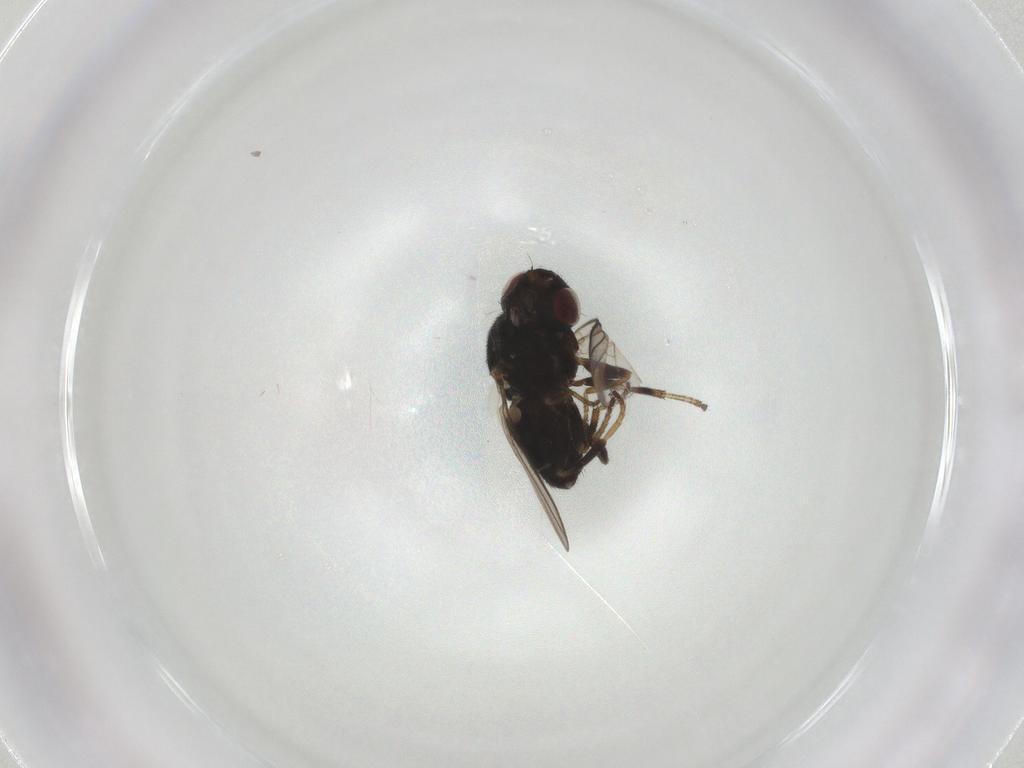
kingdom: Animalia
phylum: Arthropoda
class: Insecta
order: Diptera
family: Chloropidae
